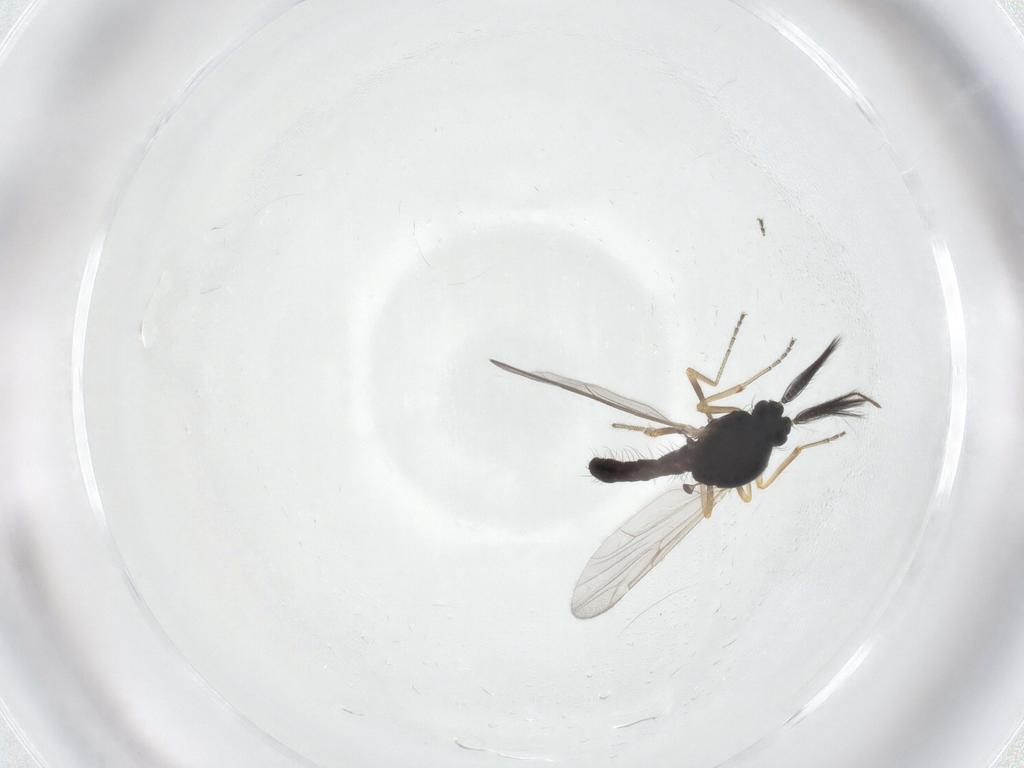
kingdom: Animalia
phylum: Arthropoda
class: Insecta
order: Diptera
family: Ceratopogonidae
